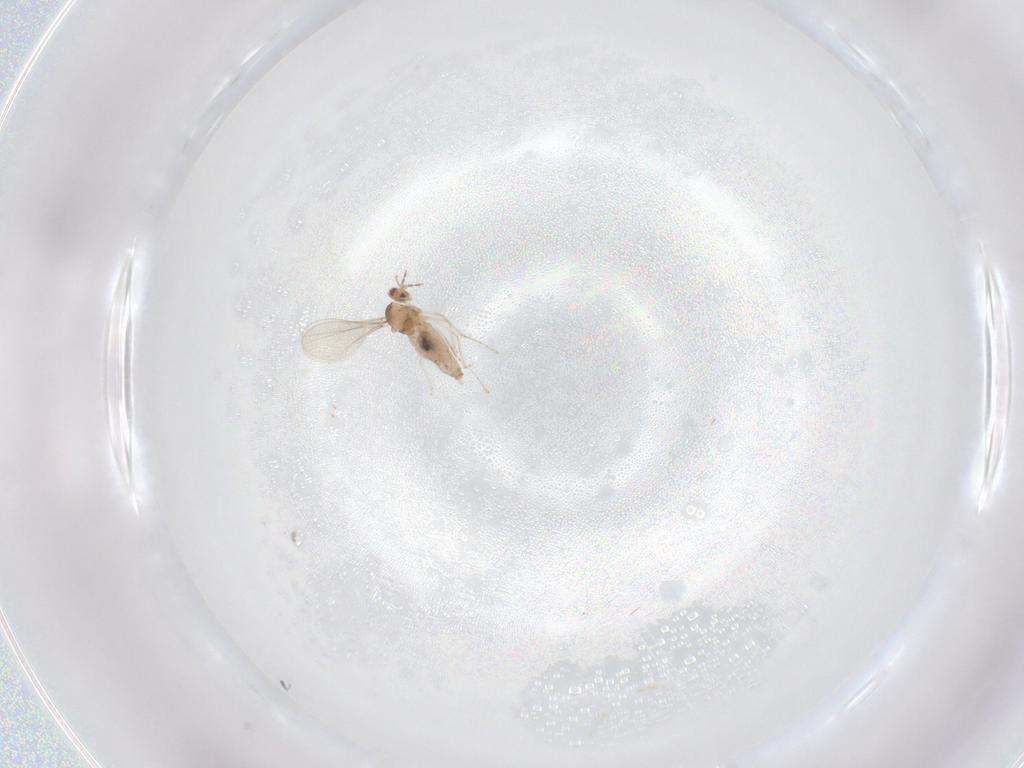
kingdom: Animalia
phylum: Arthropoda
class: Insecta
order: Diptera
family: Cecidomyiidae
